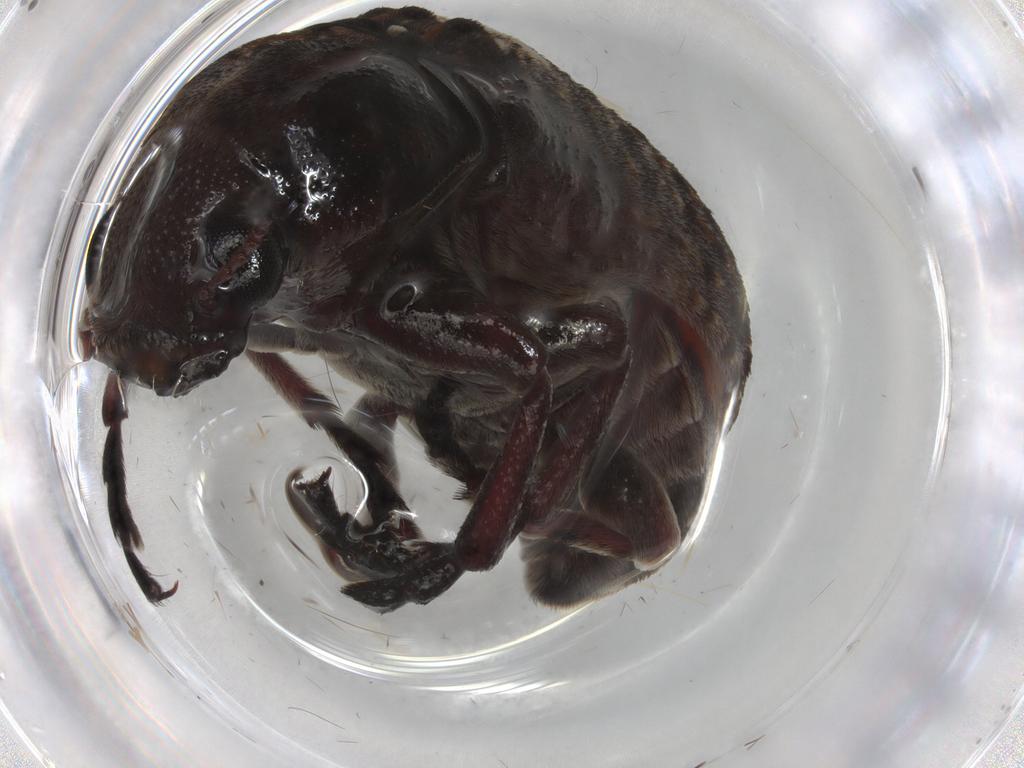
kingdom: Animalia
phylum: Arthropoda
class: Insecta
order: Coleoptera
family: Anthribidae
